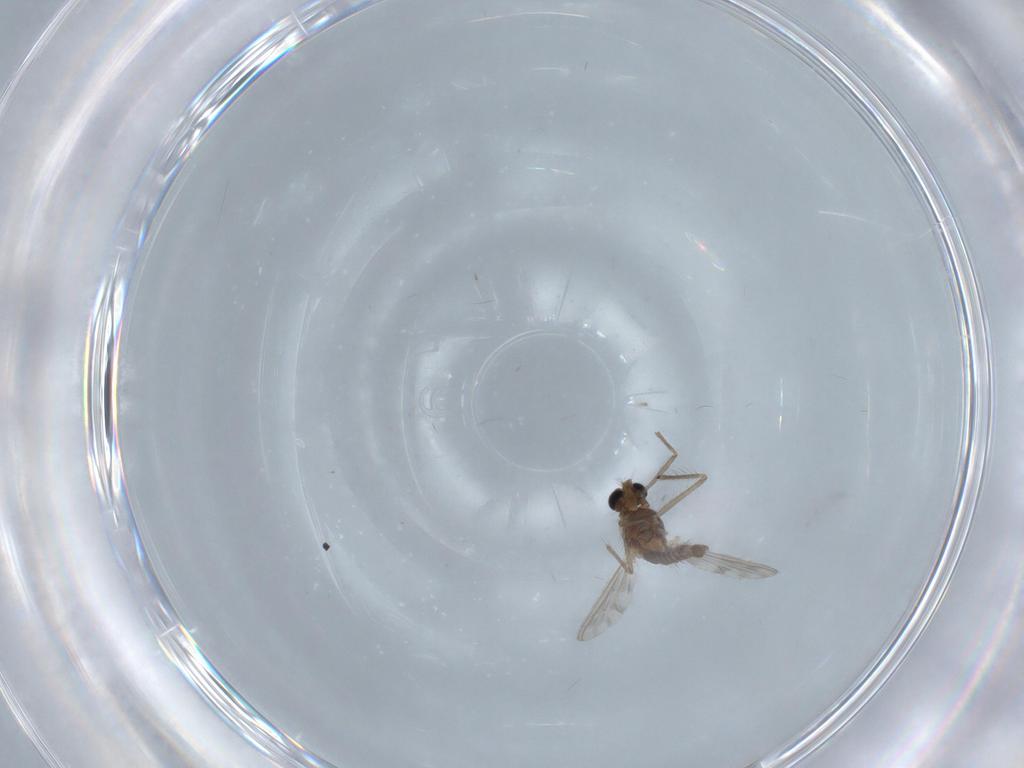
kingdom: Animalia
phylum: Arthropoda
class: Insecta
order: Diptera
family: Chironomidae
